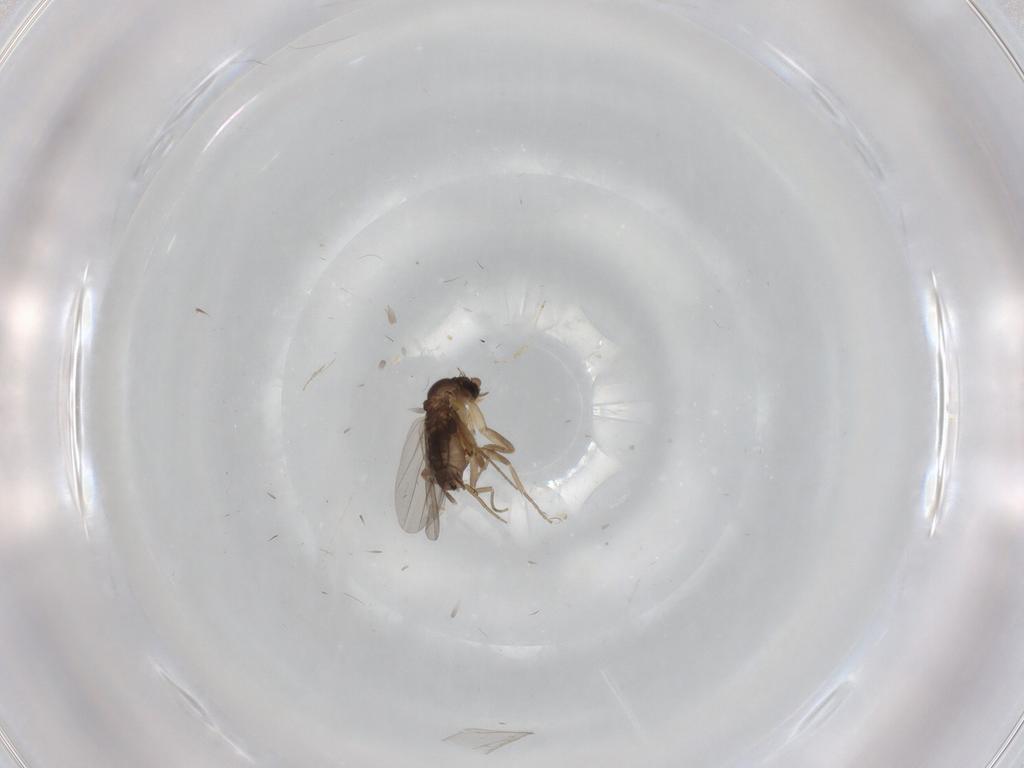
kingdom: Animalia
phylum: Arthropoda
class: Insecta
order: Diptera
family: Cecidomyiidae
